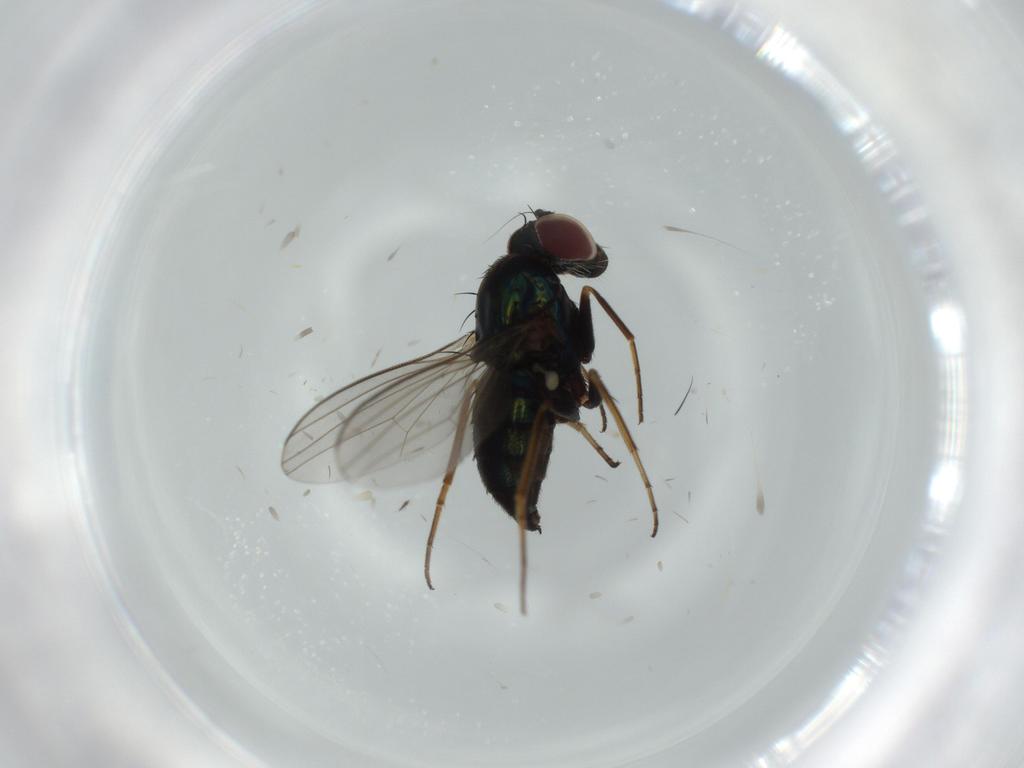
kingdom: Animalia
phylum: Arthropoda
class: Insecta
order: Diptera
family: Dolichopodidae
